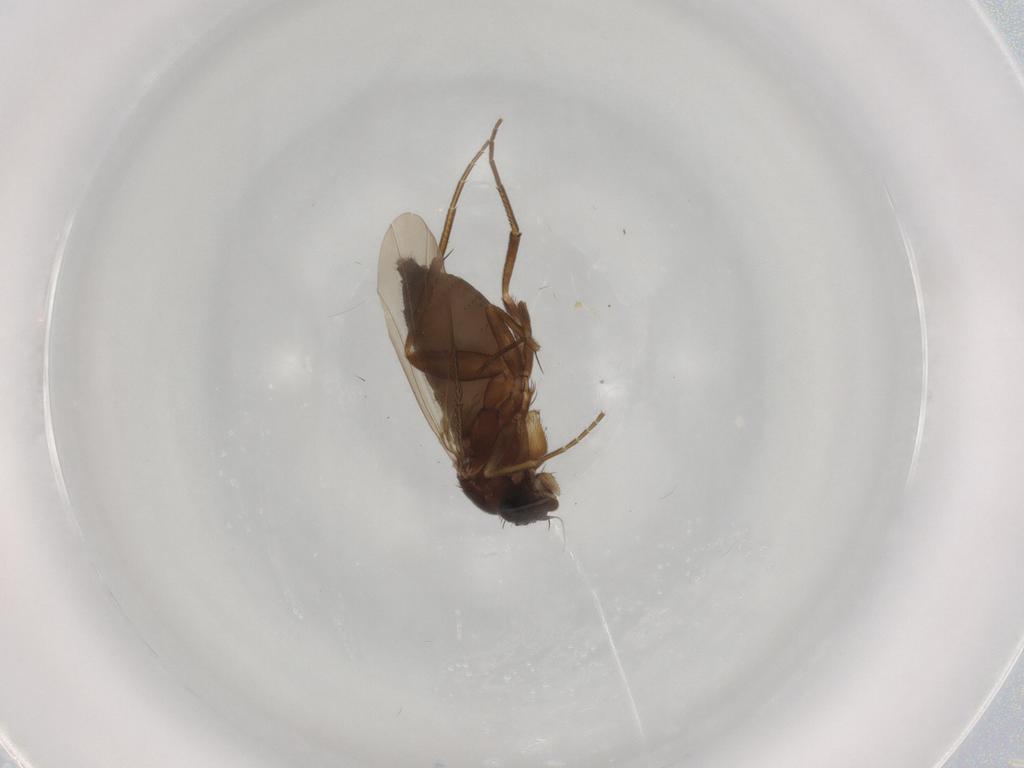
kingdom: Animalia
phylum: Arthropoda
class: Insecta
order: Diptera
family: Phoridae
